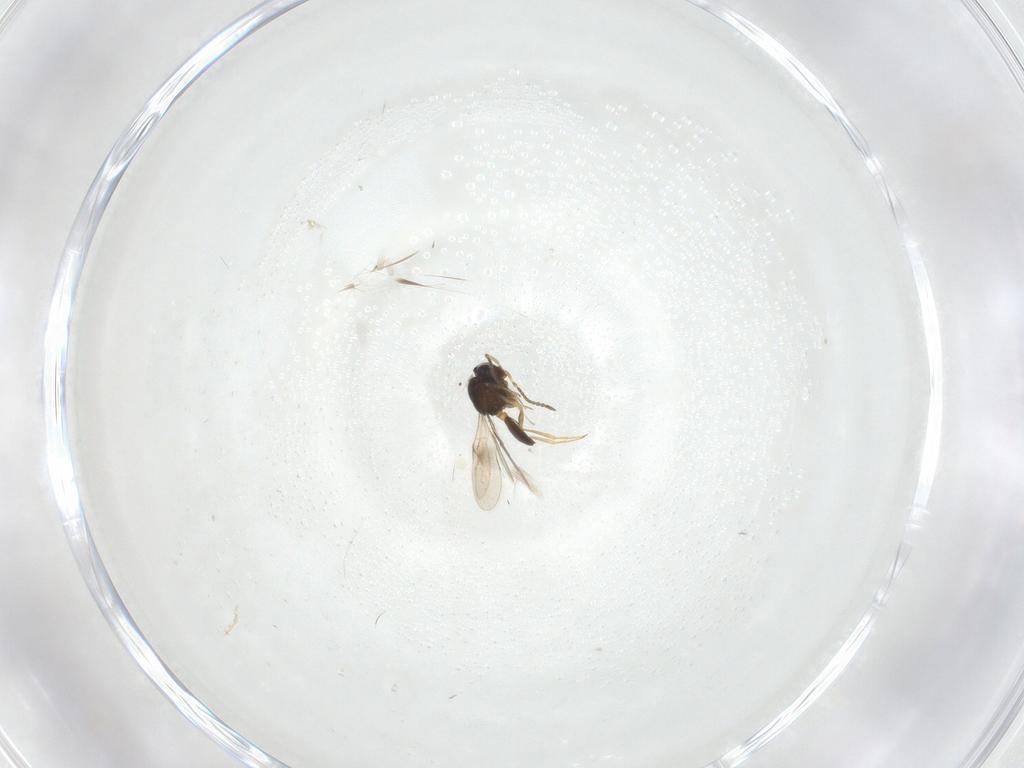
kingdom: Animalia
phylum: Arthropoda
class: Insecta
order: Hymenoptera
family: Scelionidae
